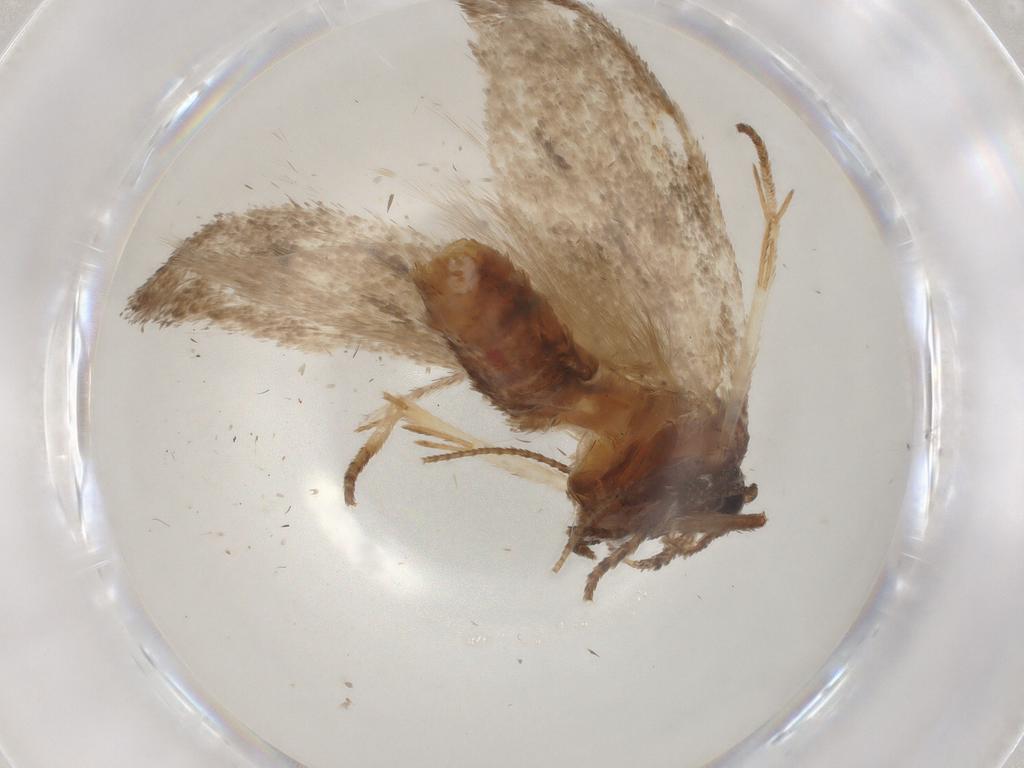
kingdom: Animalia
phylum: Arthropoda
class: Insecta
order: Lepidoptera
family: Cosmopterigidae
